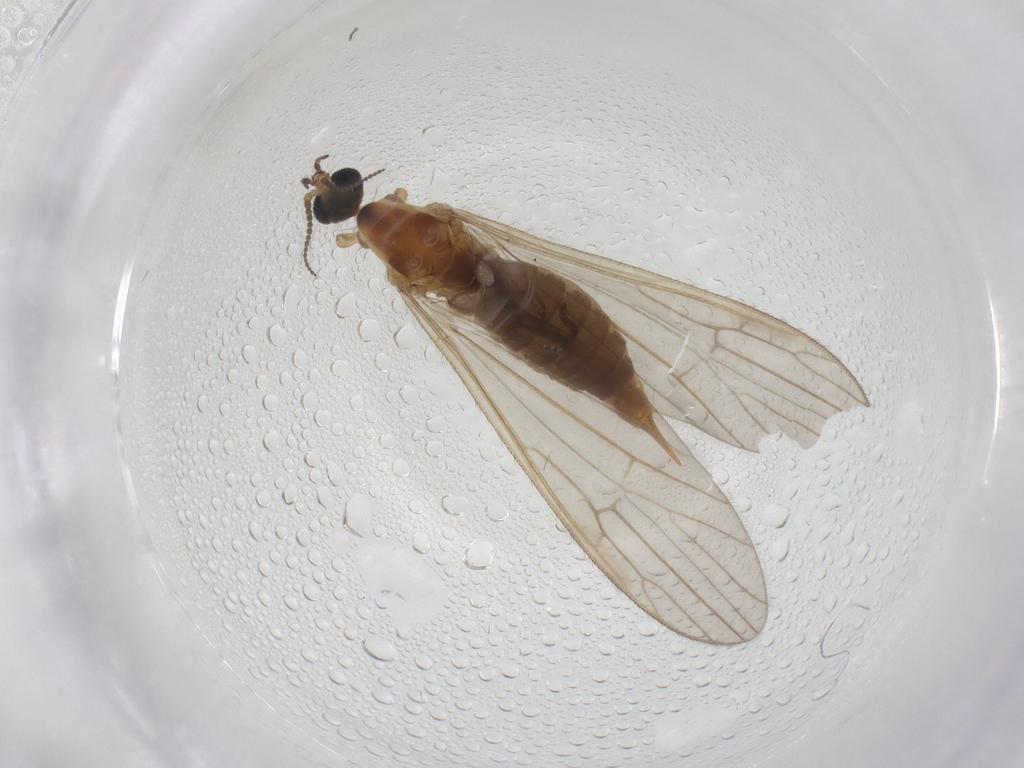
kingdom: Animalia
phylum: Arthropoda
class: Insecta
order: Diptera
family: Limoniidae
